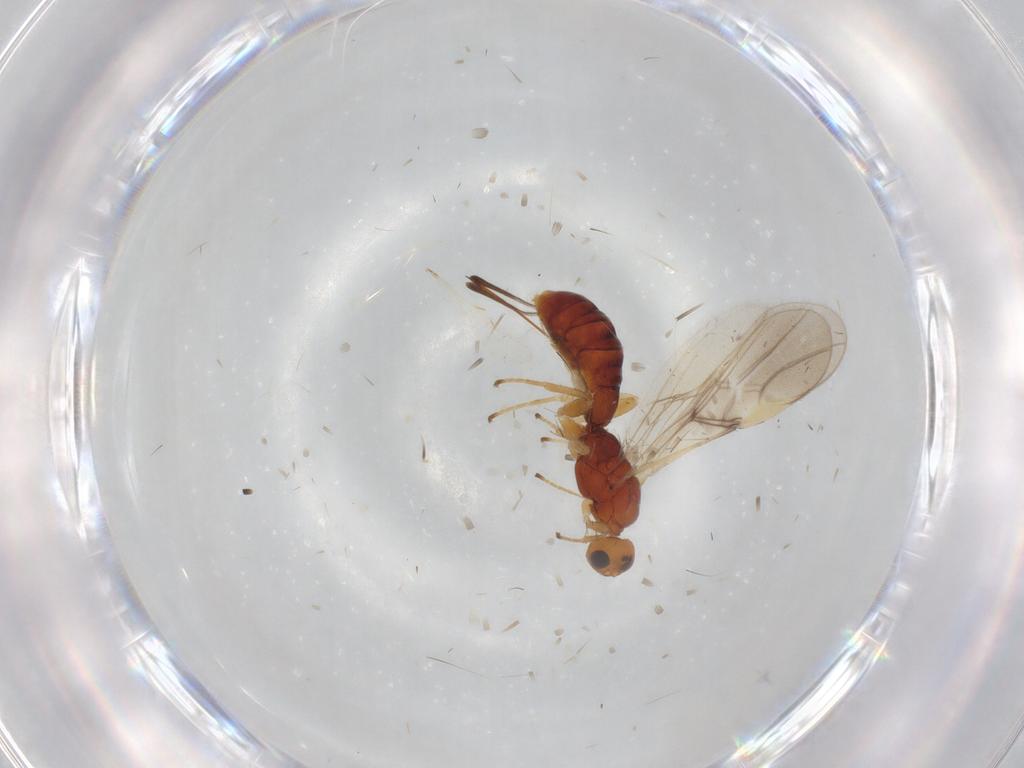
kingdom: Animalia
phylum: Arthropoda
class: Insecta
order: Hymenoptera
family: Braconidae
